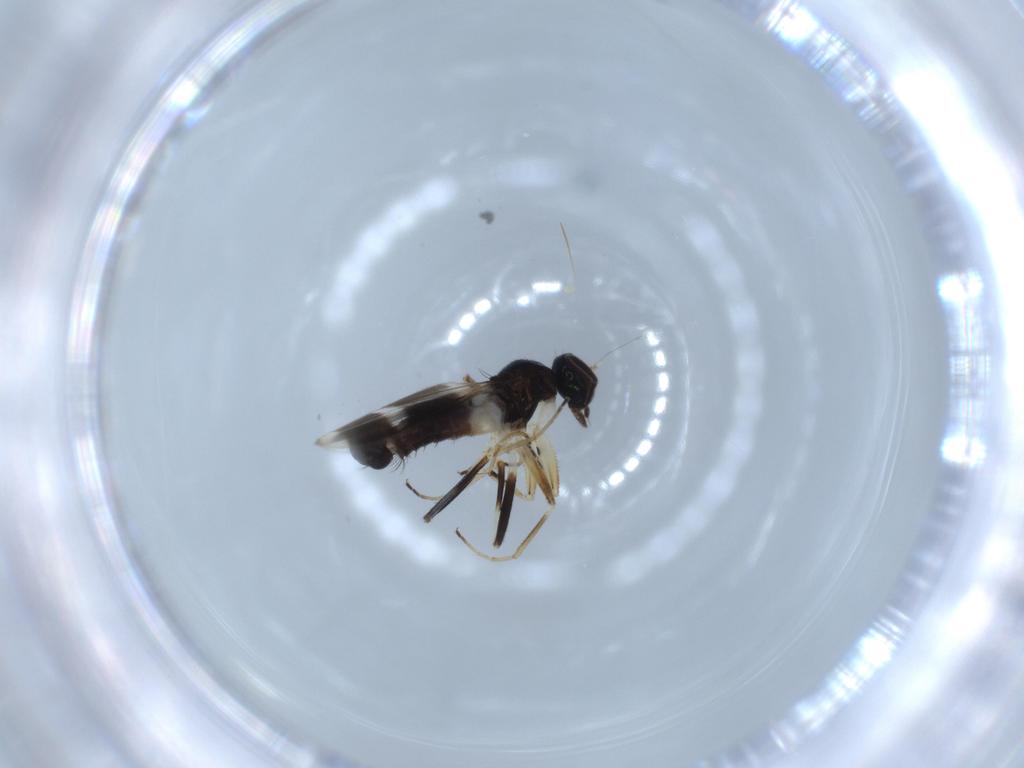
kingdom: Animalia
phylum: Arthropoda
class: Insecta
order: Diptera
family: Hybotidae
